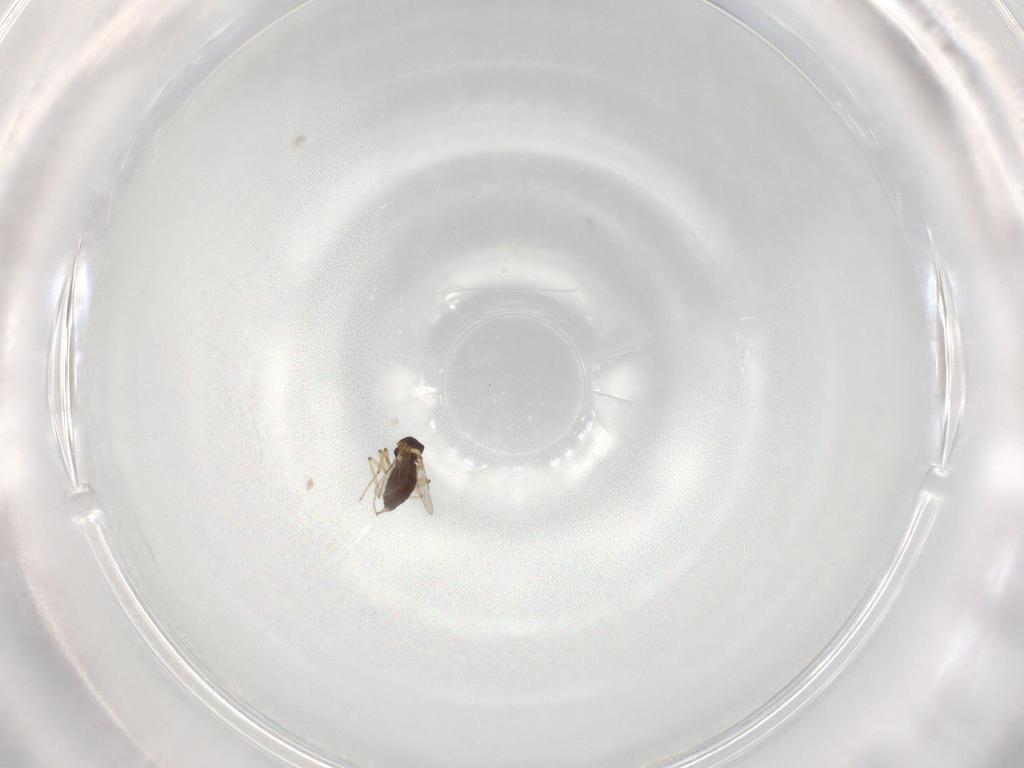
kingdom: Animalia
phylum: Arthropoda
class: Insecta
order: Diptera
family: Ceratopogonidae
